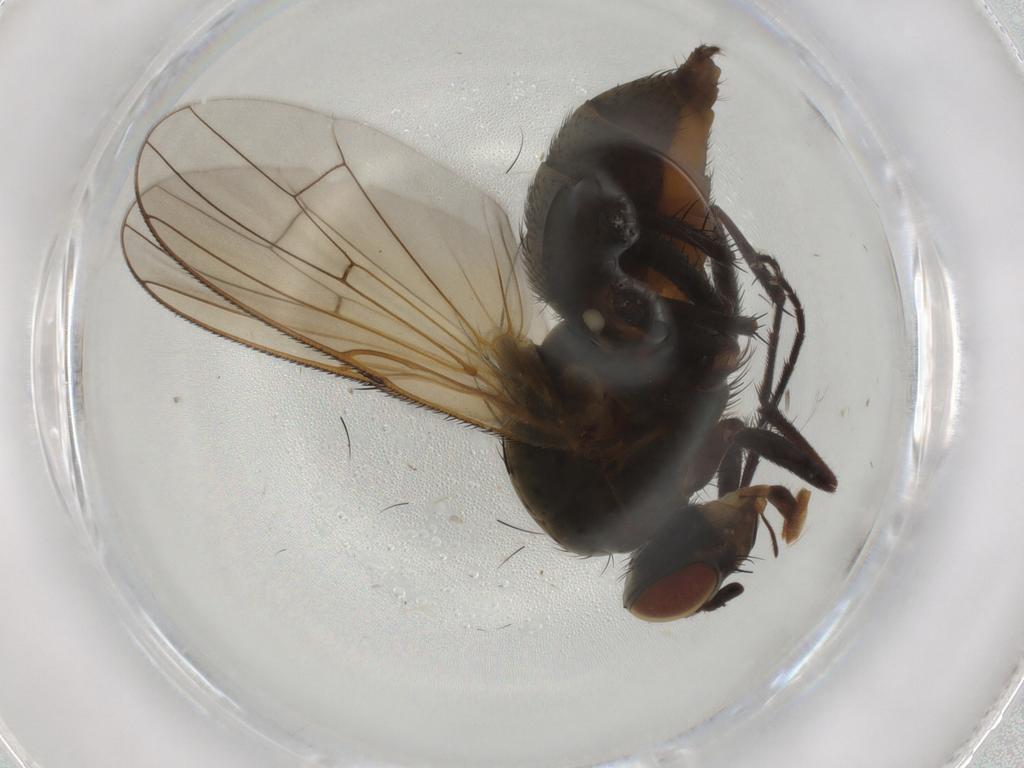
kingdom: Animalia
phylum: Arthropoda
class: Insecta
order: Diptera
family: Anthomyiidae
